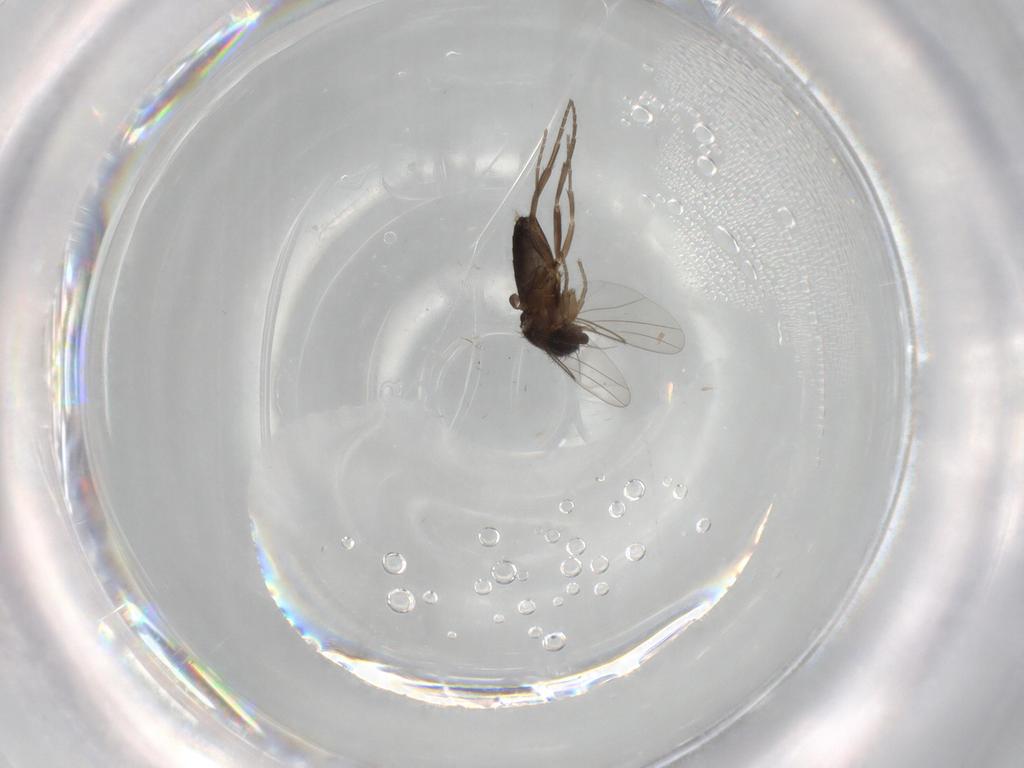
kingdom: Animalia
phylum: Arthropoda
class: Insecta
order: Diptera
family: Phoridae
